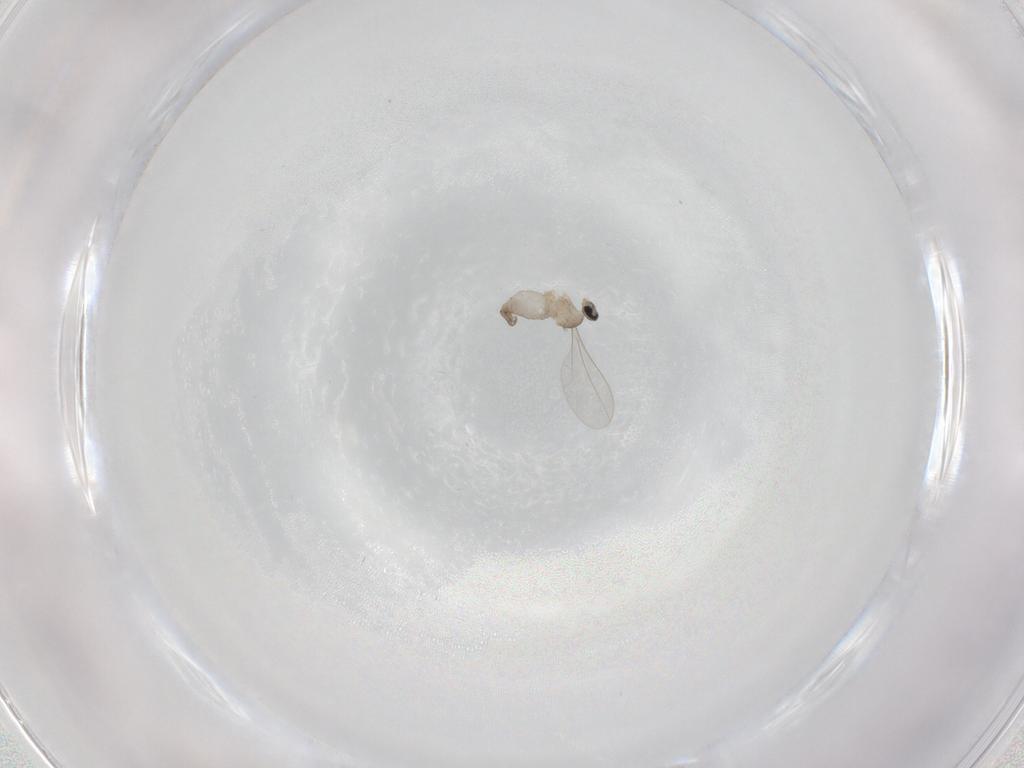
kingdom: Animalia
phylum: Arthropoda
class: Insecta
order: Diptera
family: Cecidomyiidae
